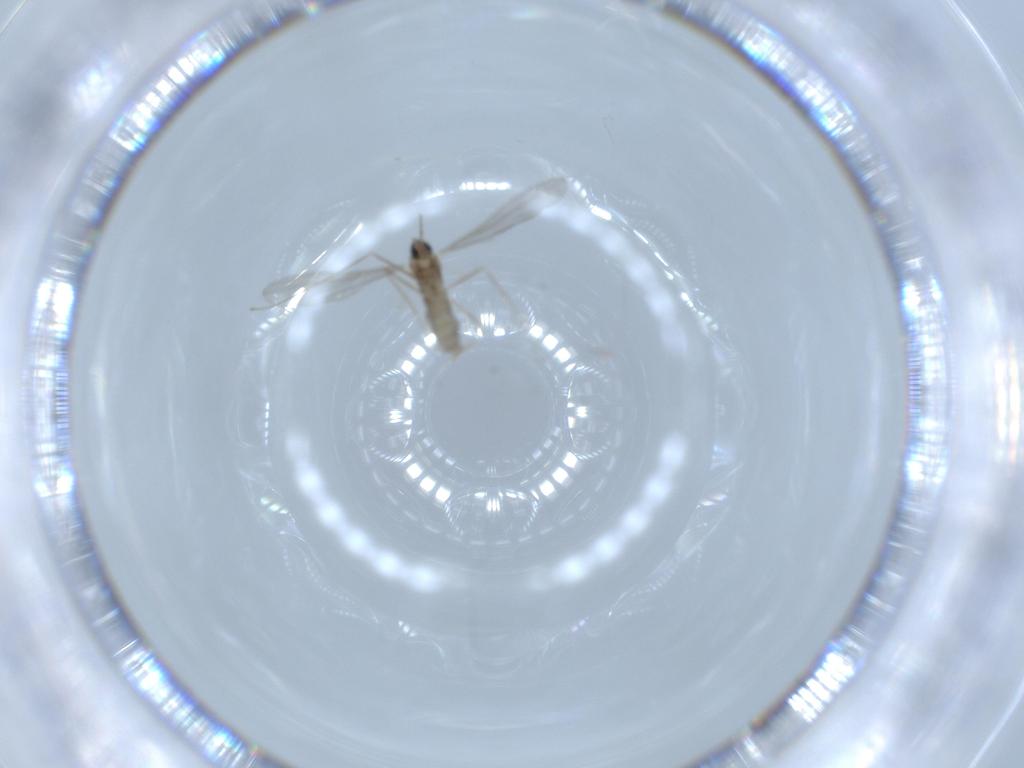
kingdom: Animalia
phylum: Arthropoda
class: Insecta
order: Diptera
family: Cecidomyiidae
